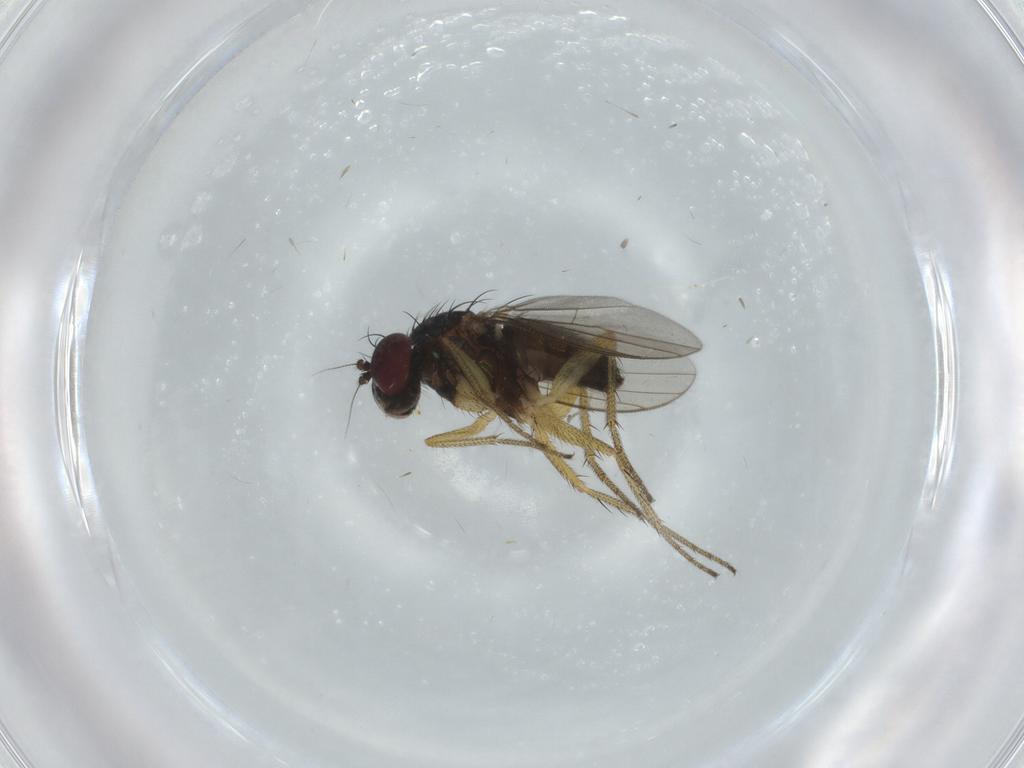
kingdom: Animalia
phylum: Arthropoda
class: Insecta
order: Diptera
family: Dolichopodidae
